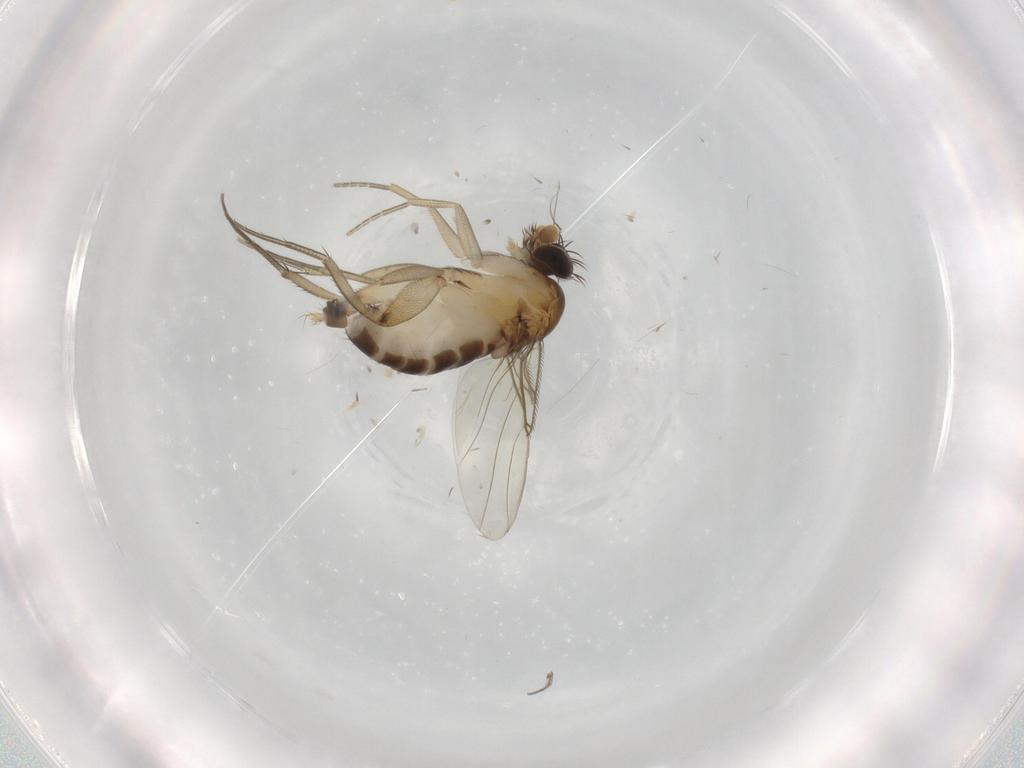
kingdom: Animalia
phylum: Arthropoda
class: Insecta
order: Diptera
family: Phoridae
